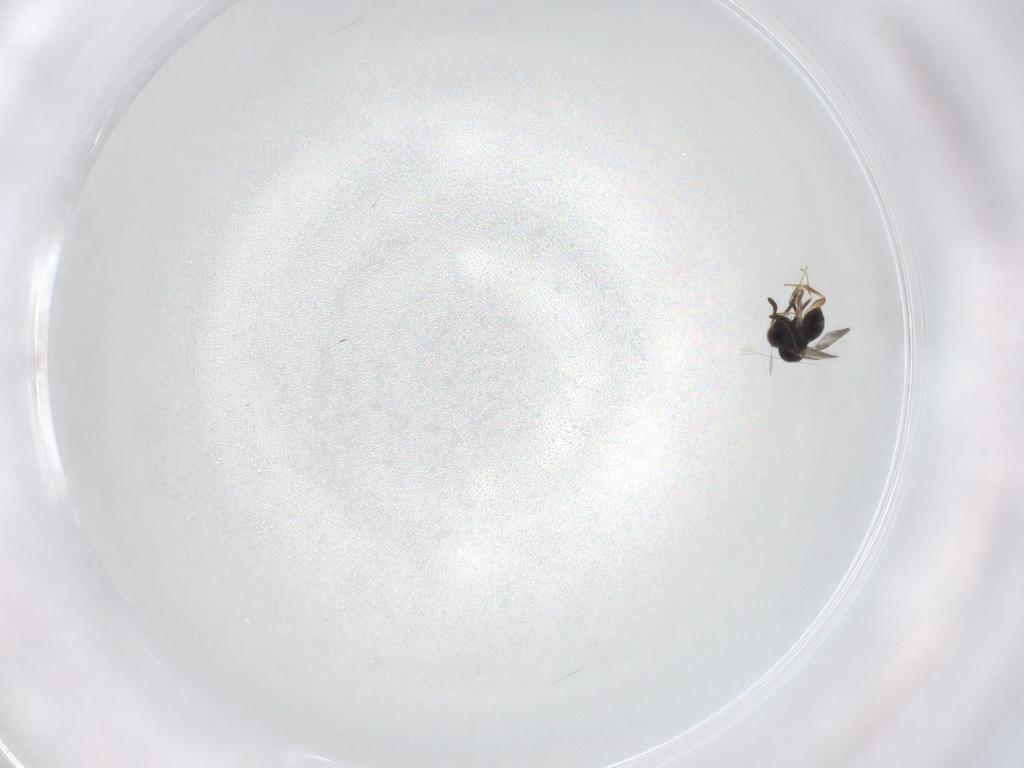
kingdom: Animalia
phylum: Arthropoda
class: Insecta
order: Hymenoptera
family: Ceraphronidae
